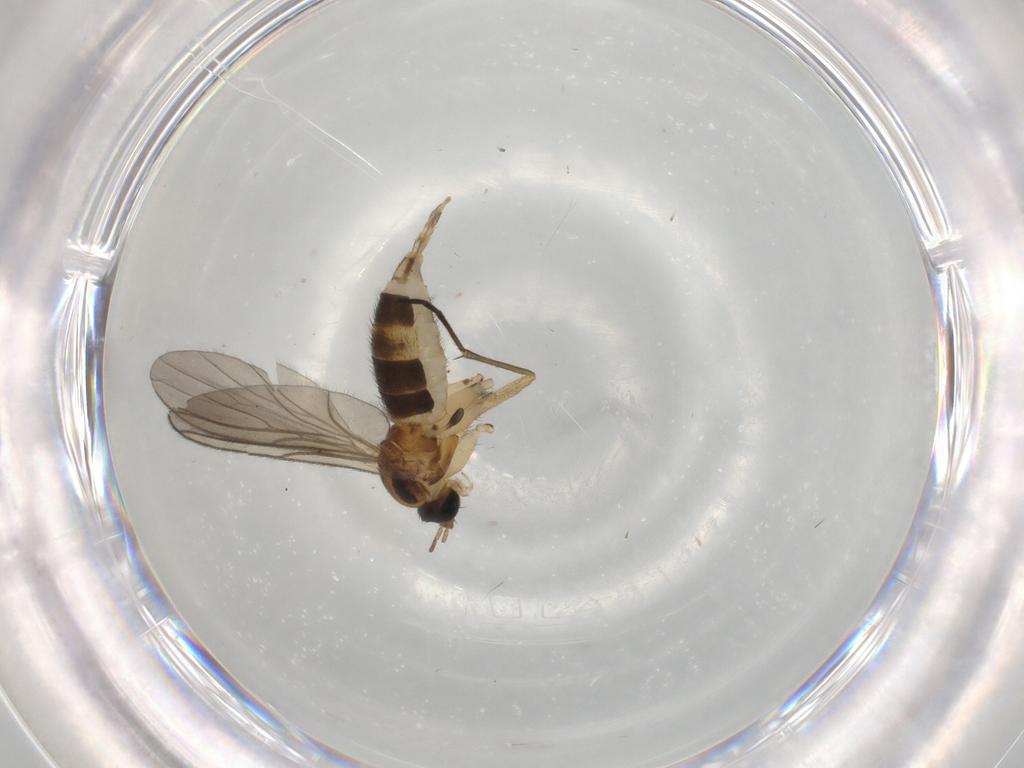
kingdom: Animalia
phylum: Arthropoda
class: Insecta
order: Diptera
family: Sciaridae
